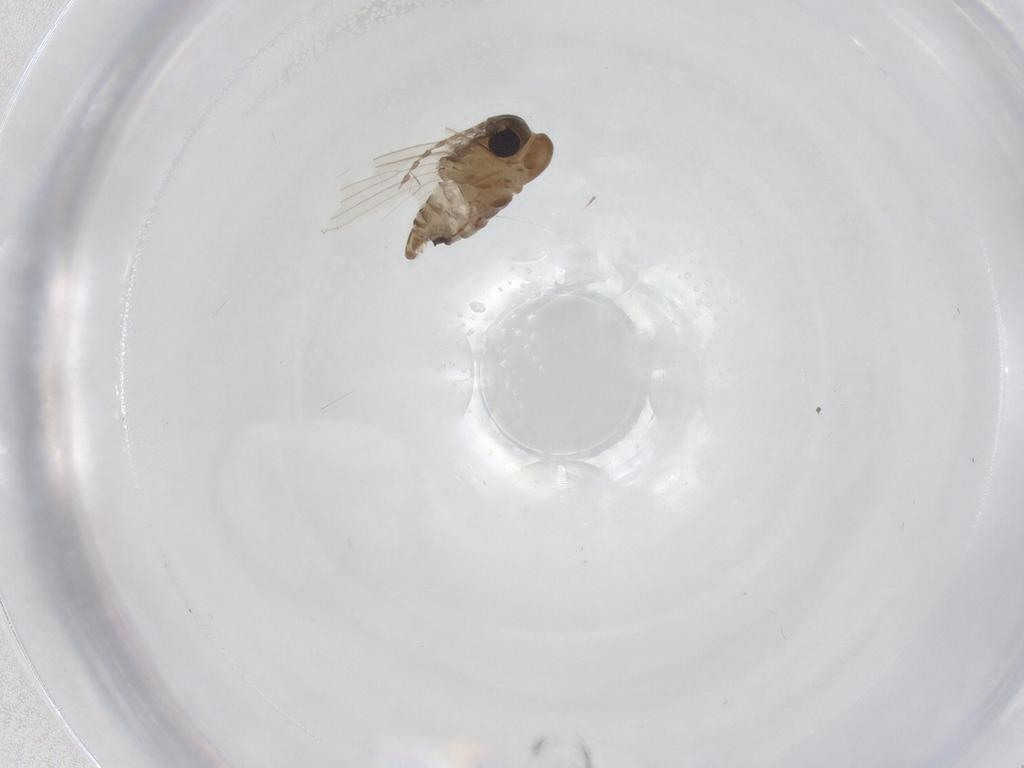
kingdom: Animalia
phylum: Arthropoda
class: Insecta
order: Diptera
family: Psychodidae
